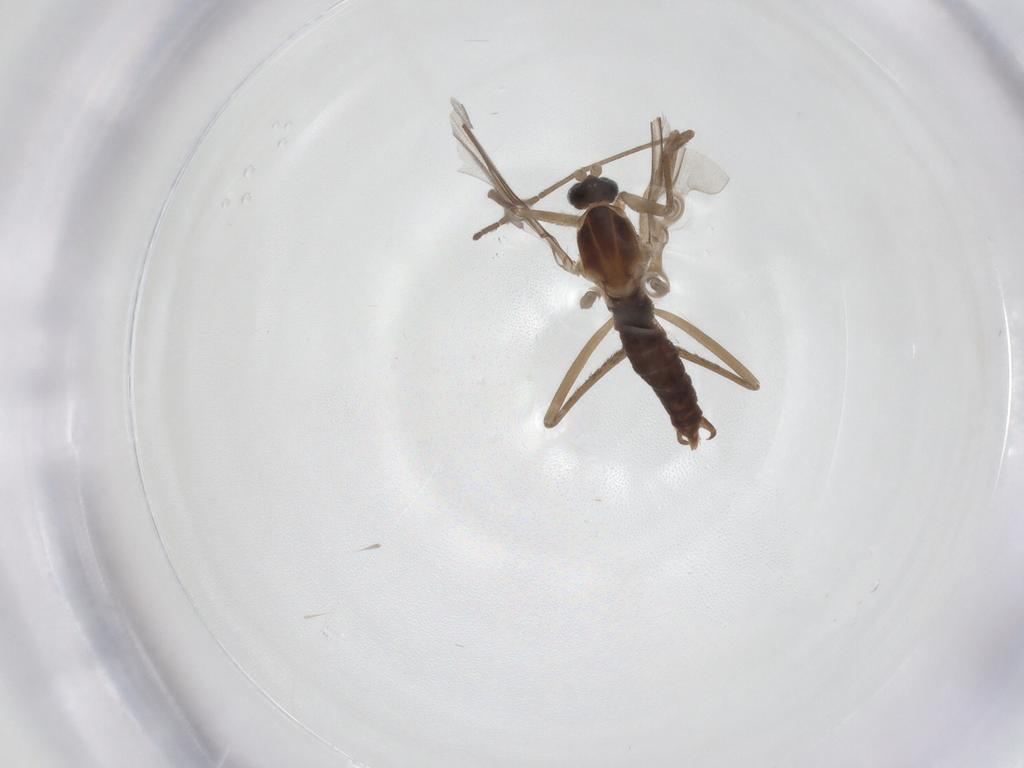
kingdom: Animalia
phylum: Arthropoda
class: Insecta
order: Diptera
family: Cecidomyiidae
